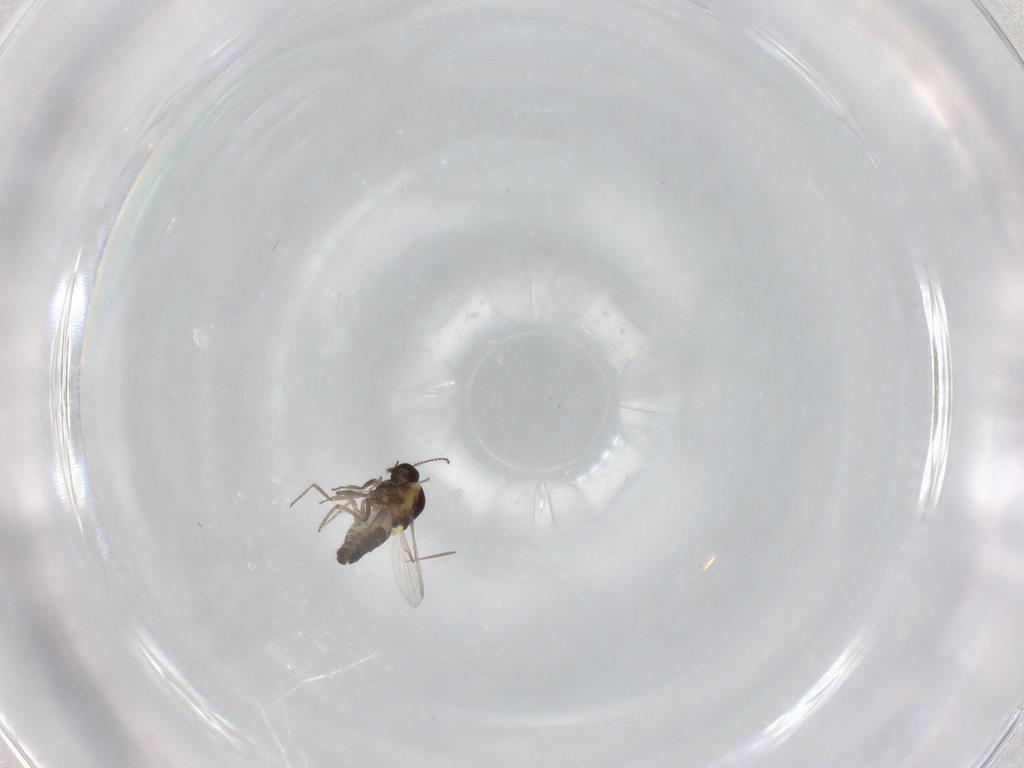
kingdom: Animalia
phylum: Arthropoda
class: Insecta
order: Diptera
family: Cecidomyiidae
